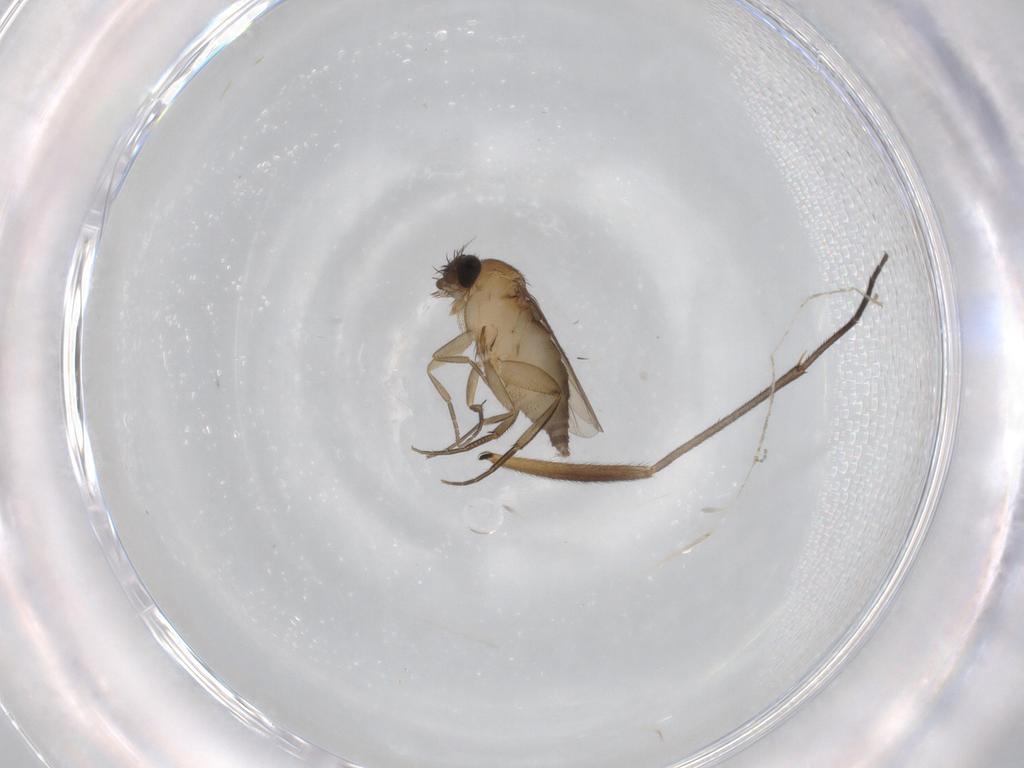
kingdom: Animalia
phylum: Arthropoda
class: Insecta
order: Diptera
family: Phoridae
